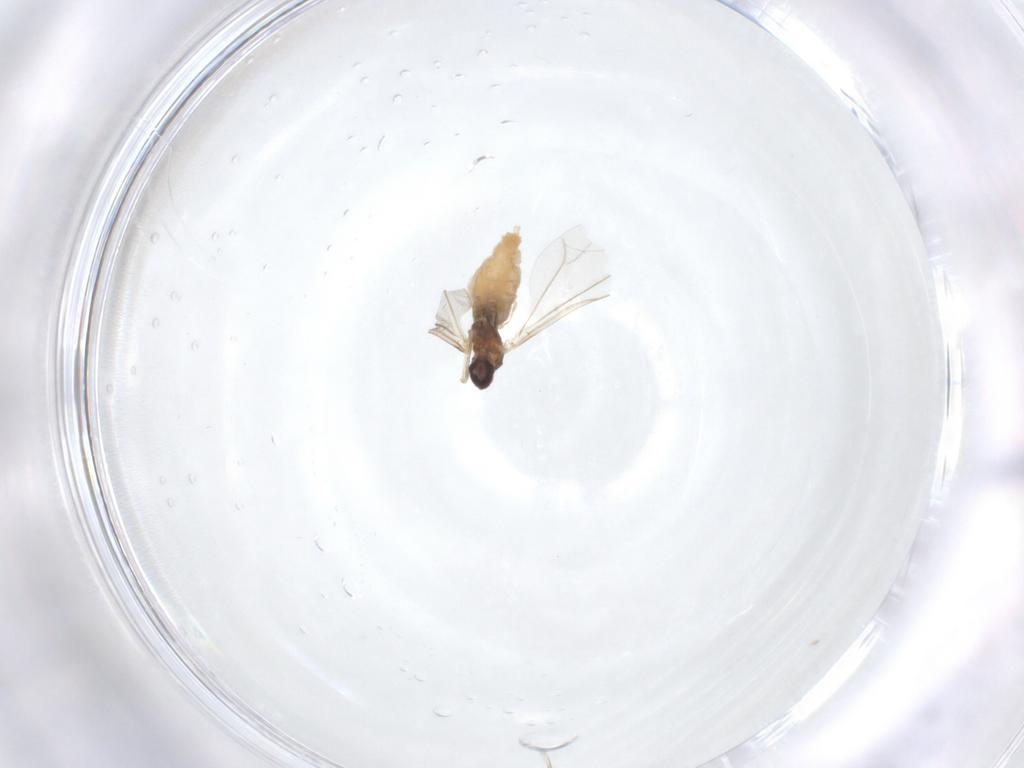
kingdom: Animalia
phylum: Arthropoda
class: Insecta
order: Diptera
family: Cecidomyiidae
